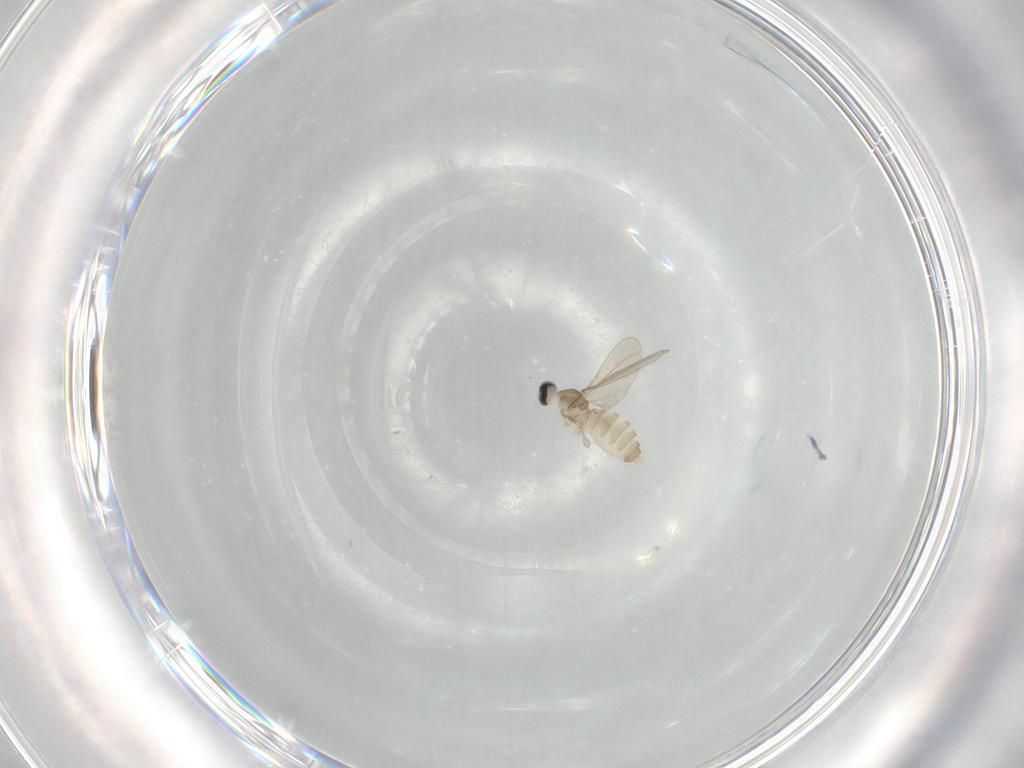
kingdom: Animalia
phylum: Arthropoda
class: Insecta
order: Diptera
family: Cecidomyiidae
